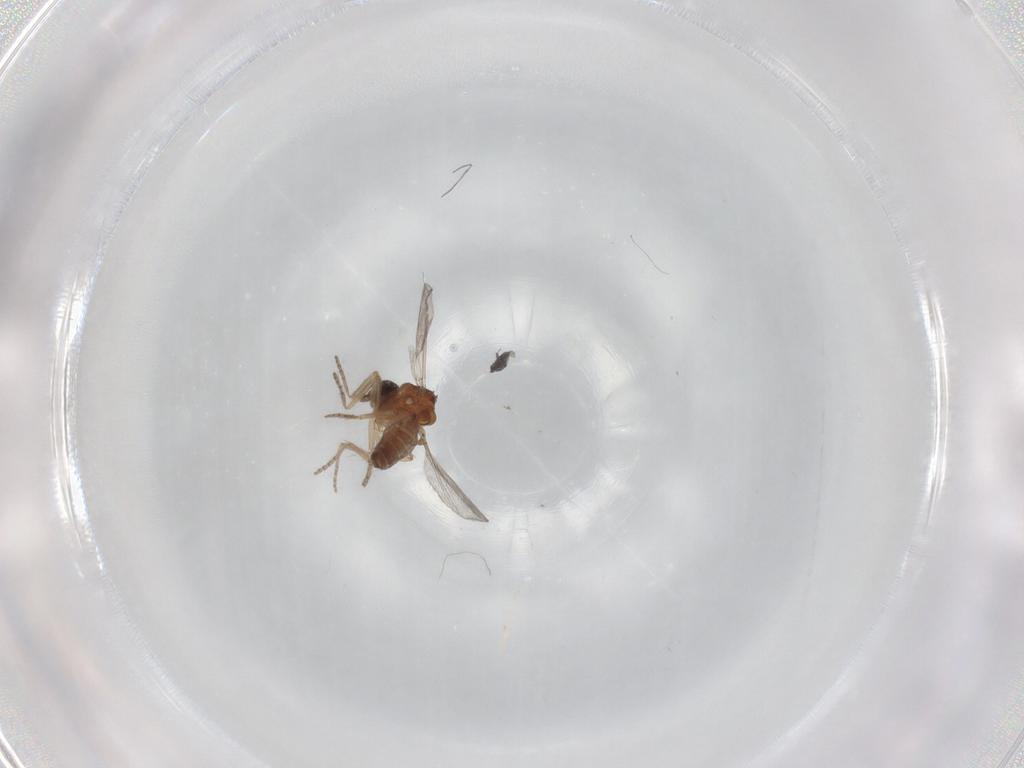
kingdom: Animalia
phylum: Arthropoda
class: Insecta
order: Diptera
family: Ceratopogonidae
